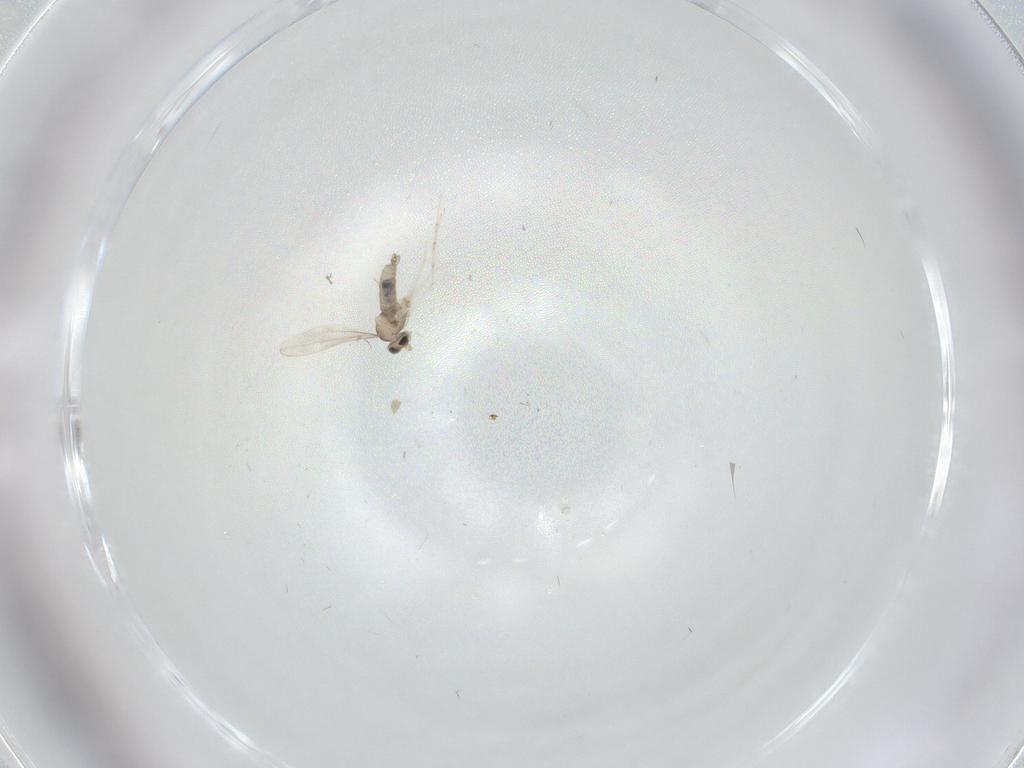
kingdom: Animalia
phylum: Arthropoda
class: Insecta
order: Diptera
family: Cecidomyiidae
